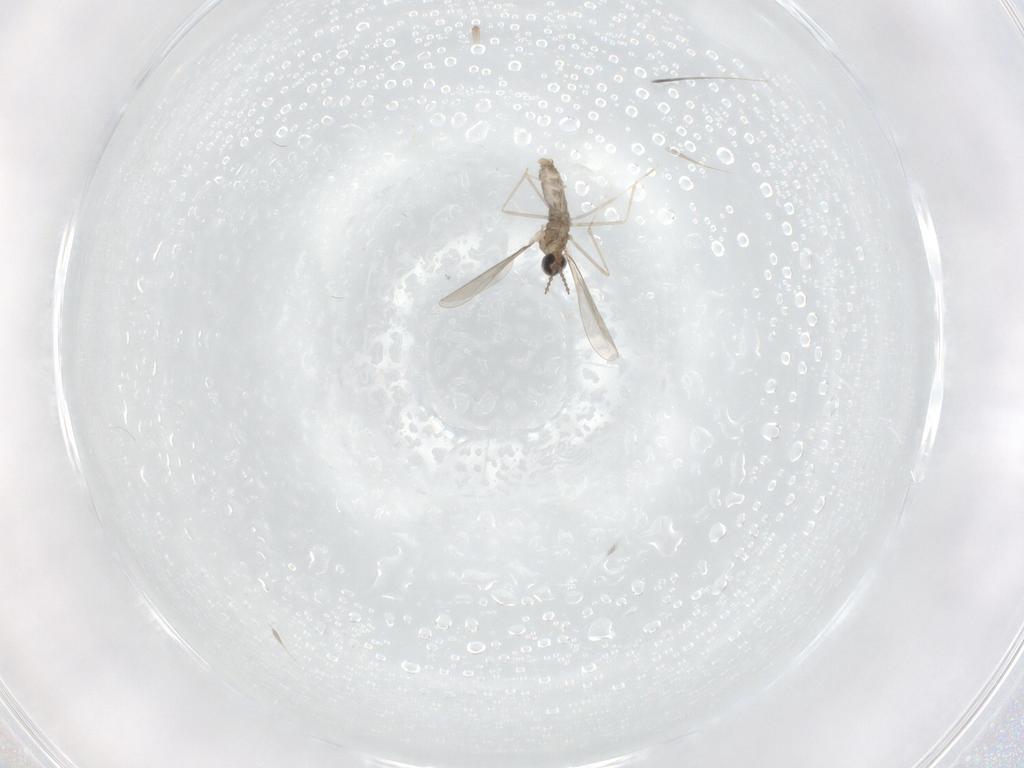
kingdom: Animalia
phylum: Arthropoda
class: Insecta
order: Diptera
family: Cecidomyiidae
